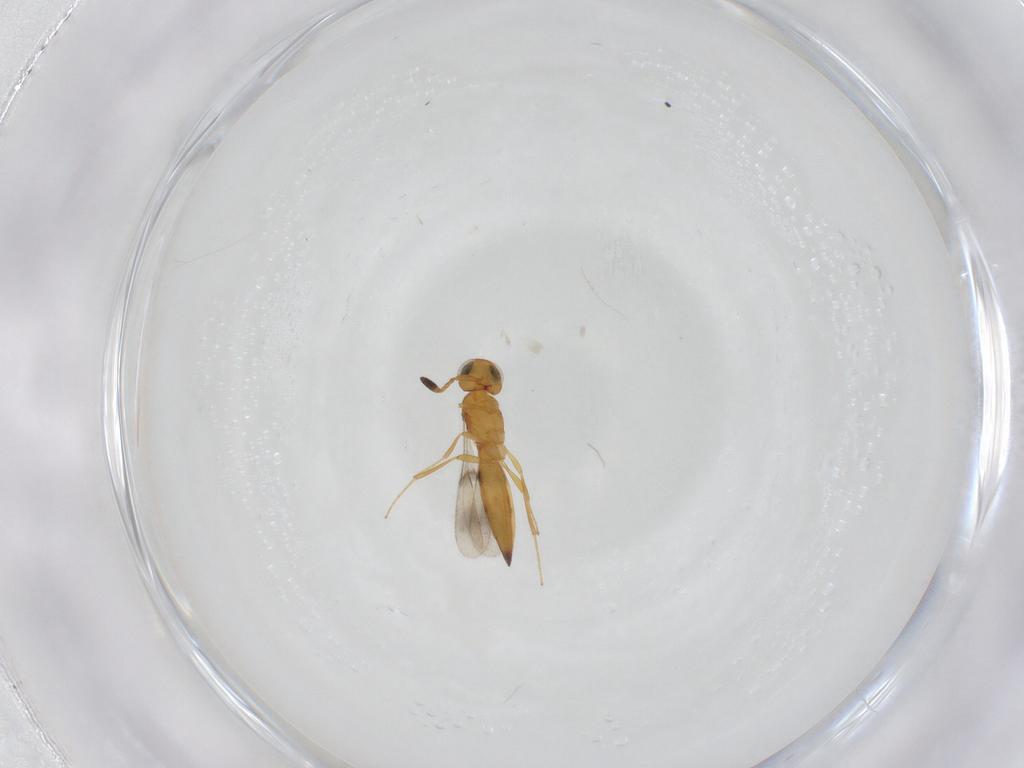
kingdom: Animalia
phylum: Arthropoda
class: Insecta
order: Hymenoptera
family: Scelionidae
